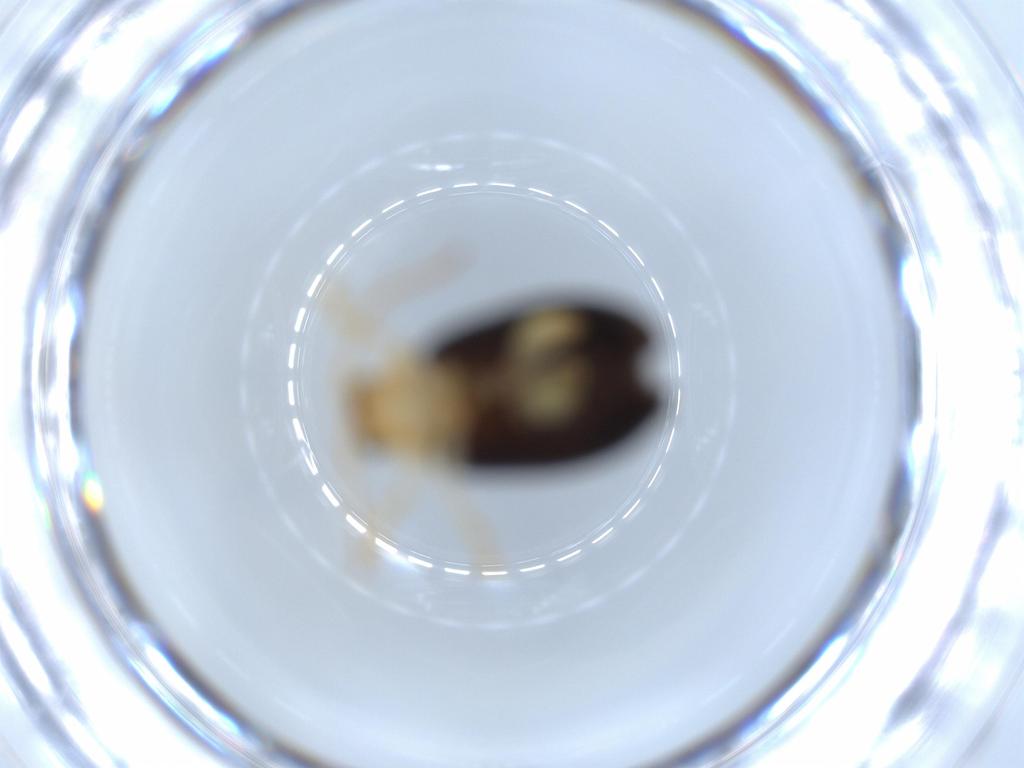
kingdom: Animalia
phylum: Arthropoda
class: Insecta
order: Coleoptera
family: Chrysomelidae
